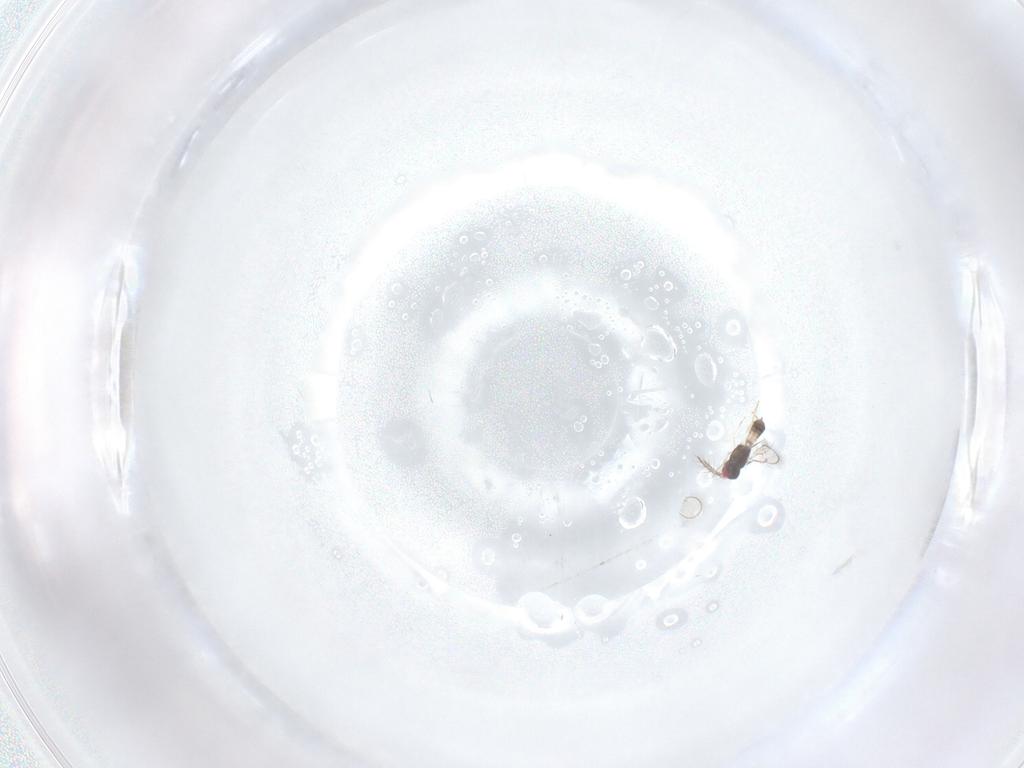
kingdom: Animalia
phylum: Arthropoda
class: Insecta
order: Hymenoptera
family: Eulophidae
